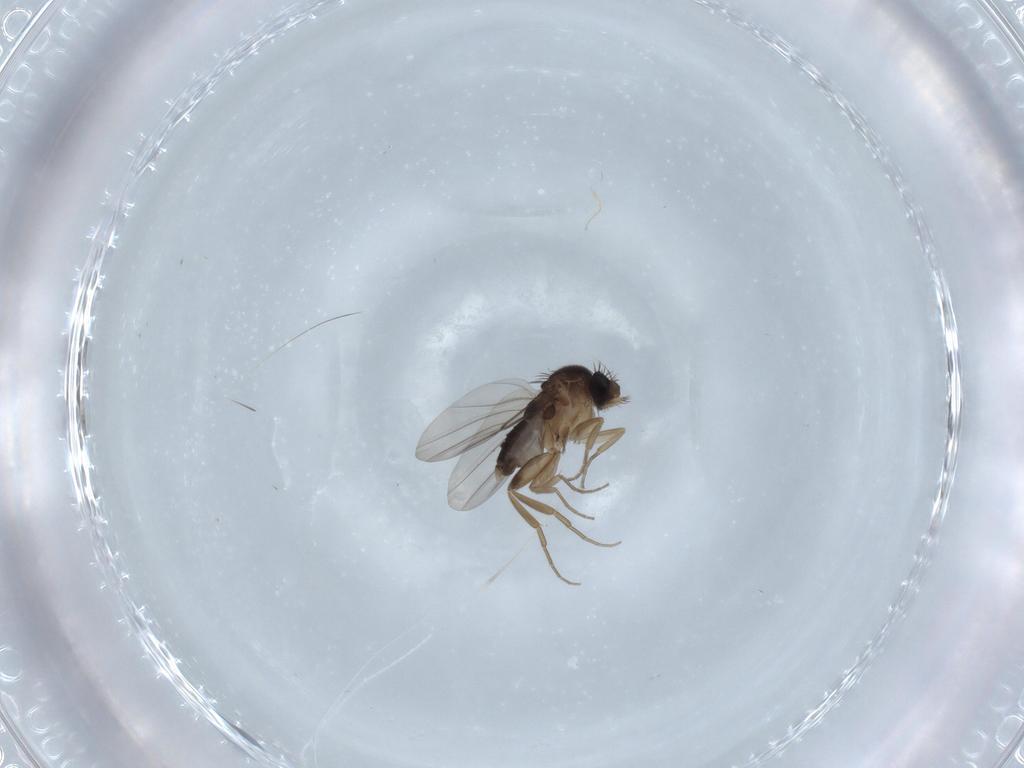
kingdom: Animalia
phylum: Arthropoda
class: Insecta
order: Diptera
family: Phoridae
